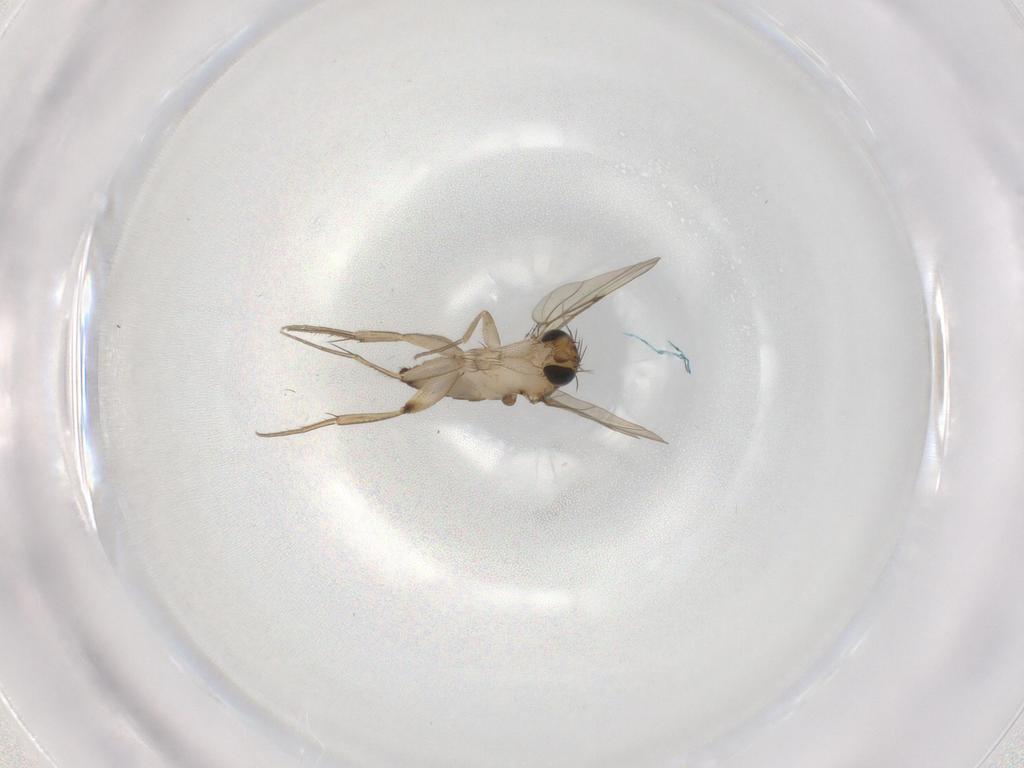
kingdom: Animalia
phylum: Arthropoda
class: Insecta
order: Diptera
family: Phoridae
